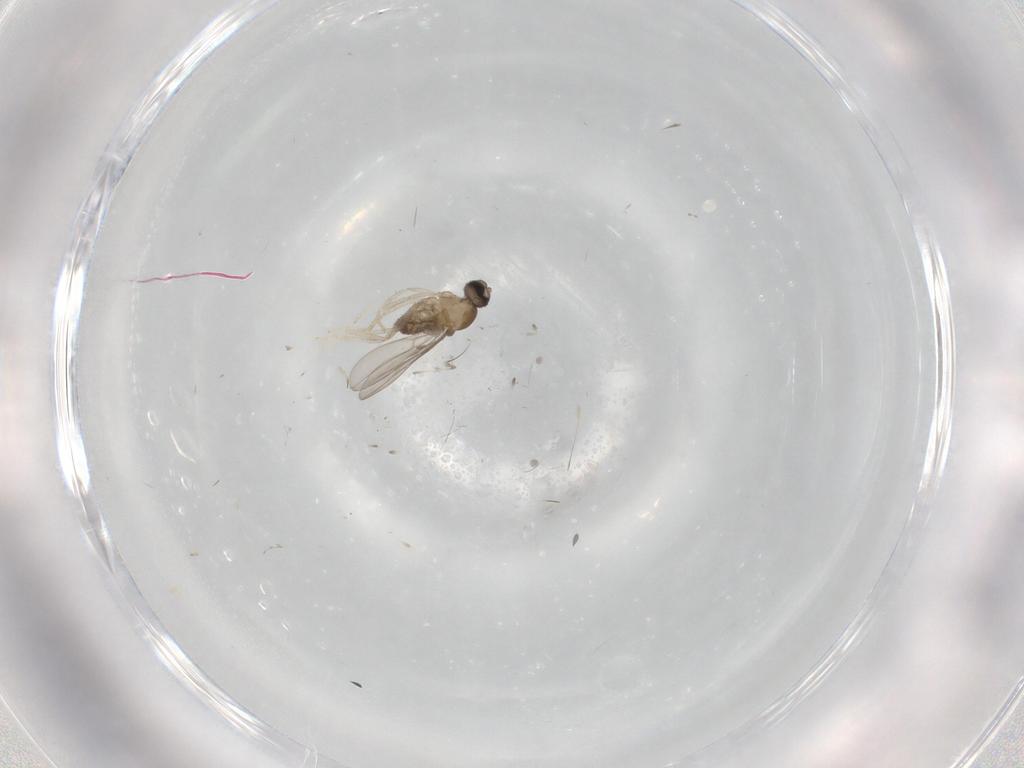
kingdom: Animalia
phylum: Arthropoda
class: Insecta
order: Diptera
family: Cecidomyiidae
